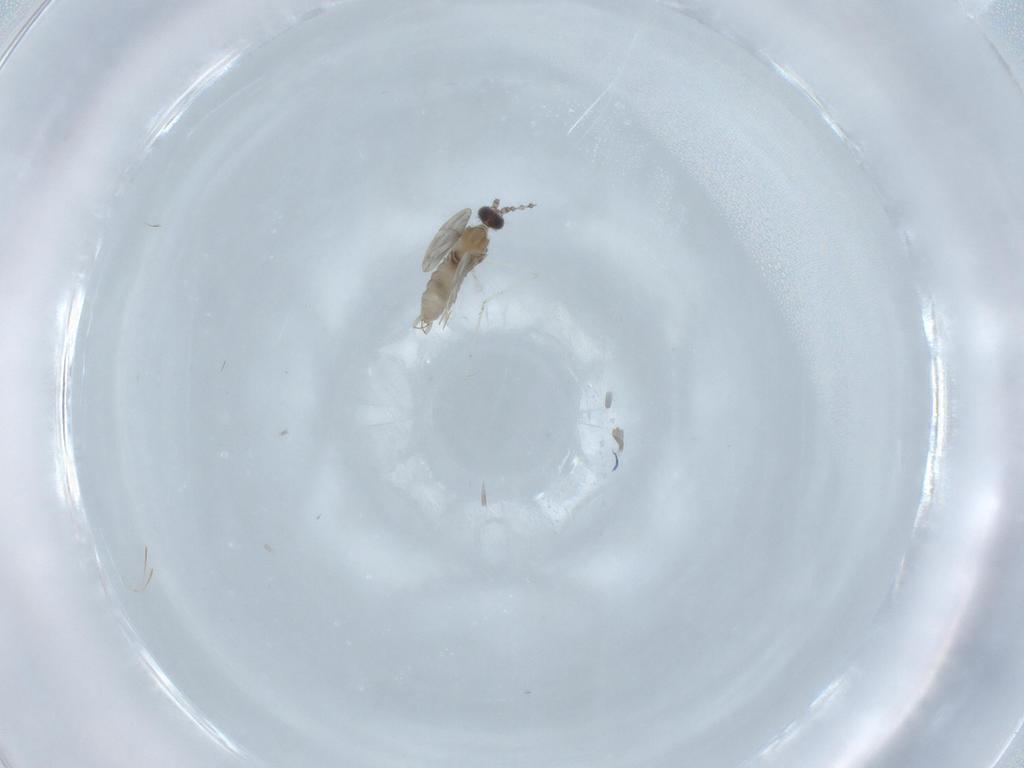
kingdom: Animalia
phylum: Arthropoda
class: Insecta
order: Diptera
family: Cecidomyiidae
